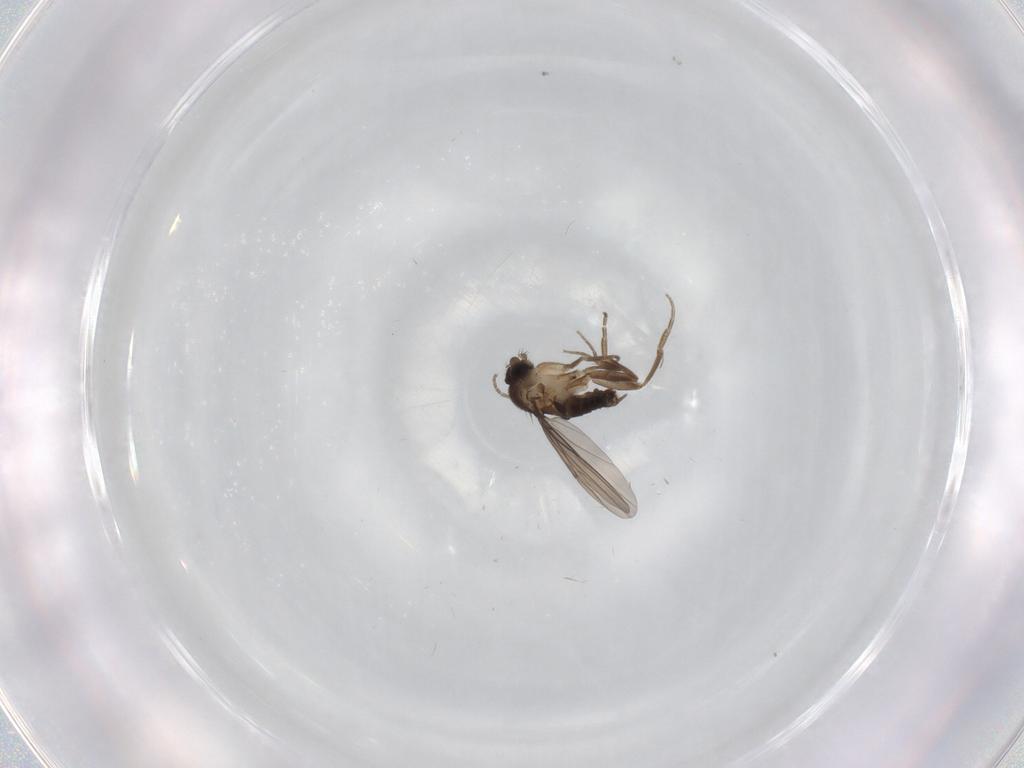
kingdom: Animalia
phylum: Arthropoda
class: Insecta
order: Diptera
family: Phoridae
